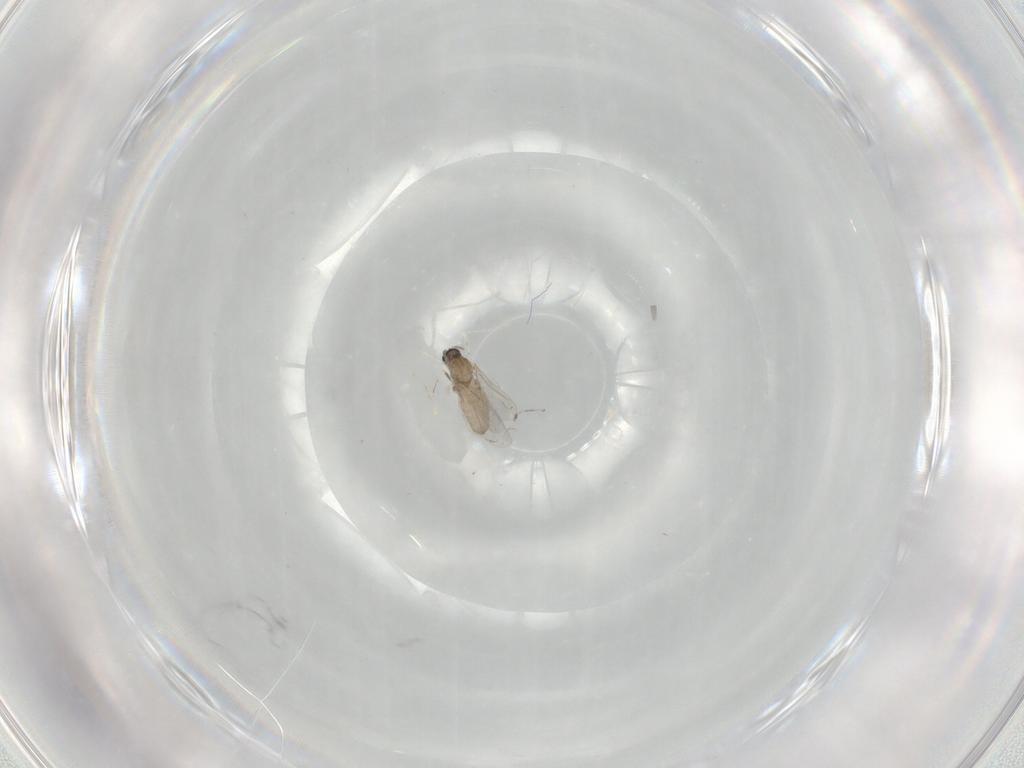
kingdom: Animalia
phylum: Arthropoda
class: Insecta
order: Diptera
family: Cecidomyiidae
